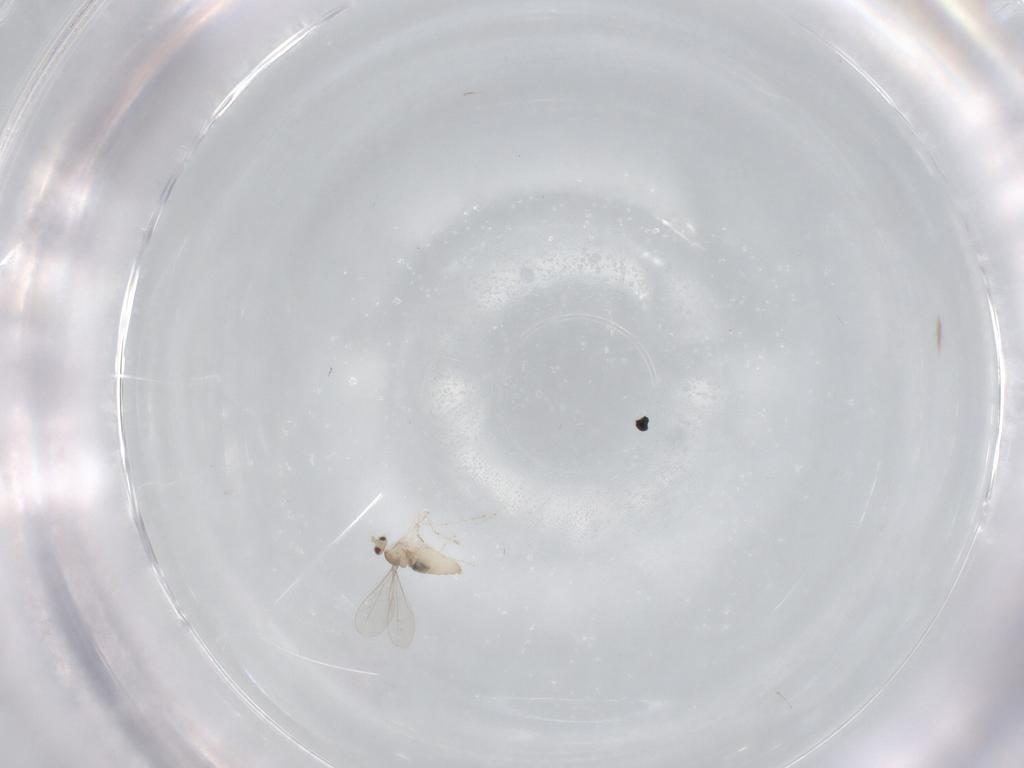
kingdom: Animalia
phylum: Arthropoda
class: Insecta
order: Diptera
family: Cecidomyiidae
